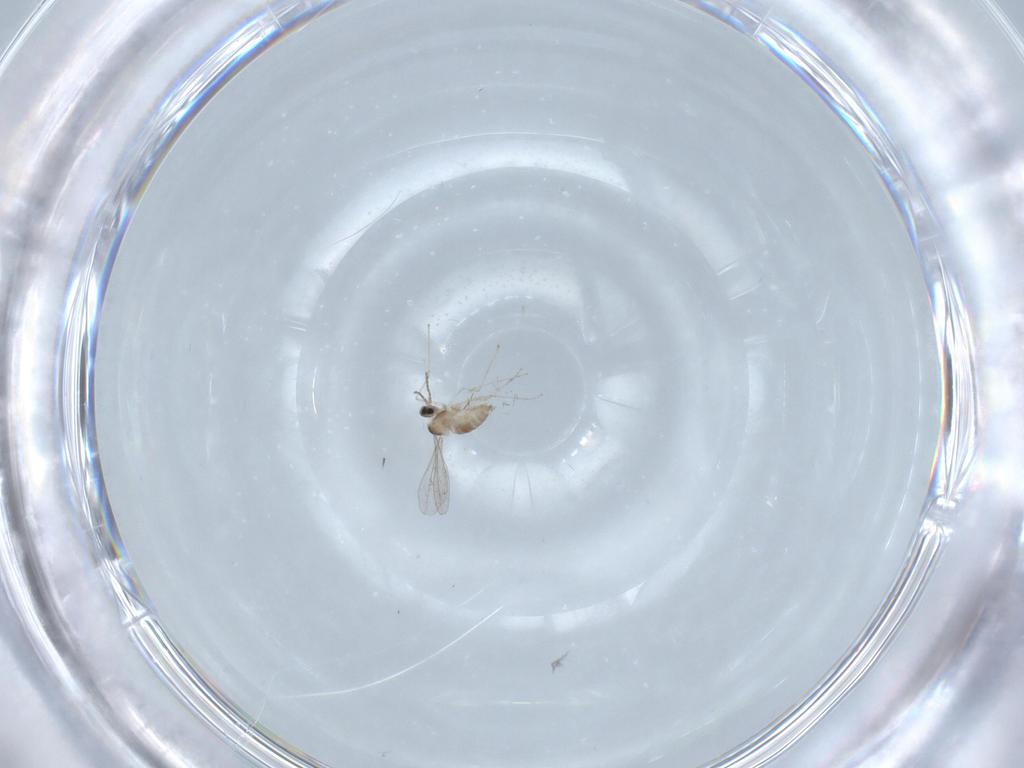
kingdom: Animalia
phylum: Arthropoda
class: Insecta
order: Diptera
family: Cecidomyiidae
